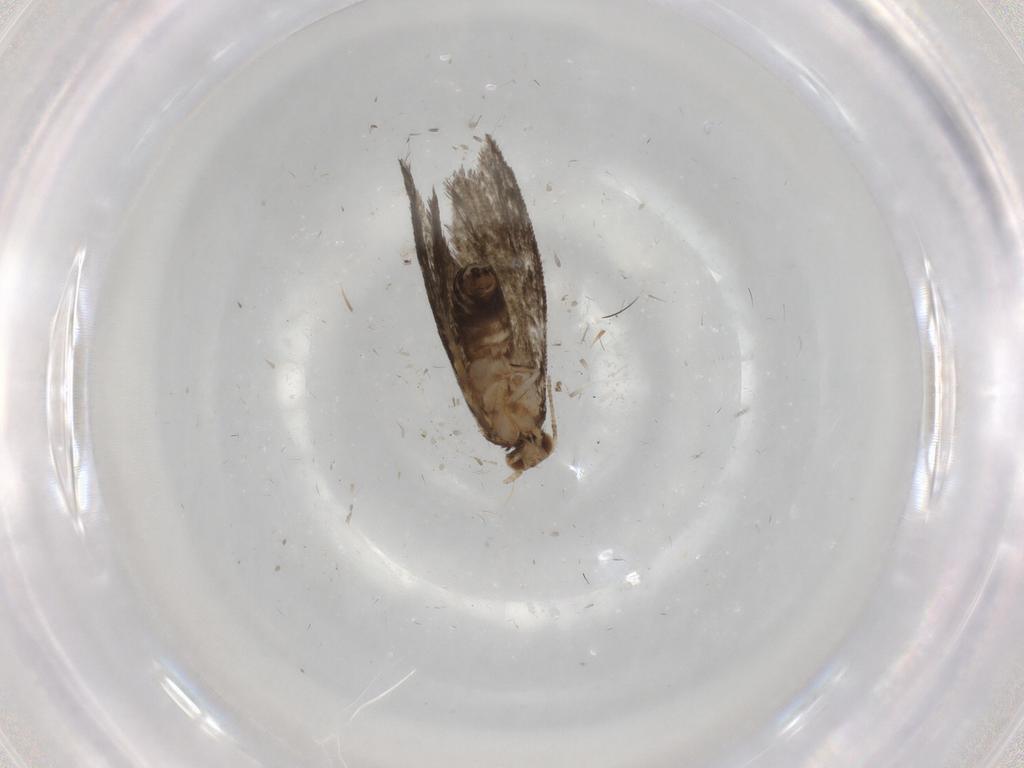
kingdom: Animalia
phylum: Arthropoda
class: Insecta
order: Lepidoptera
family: Tineidae
